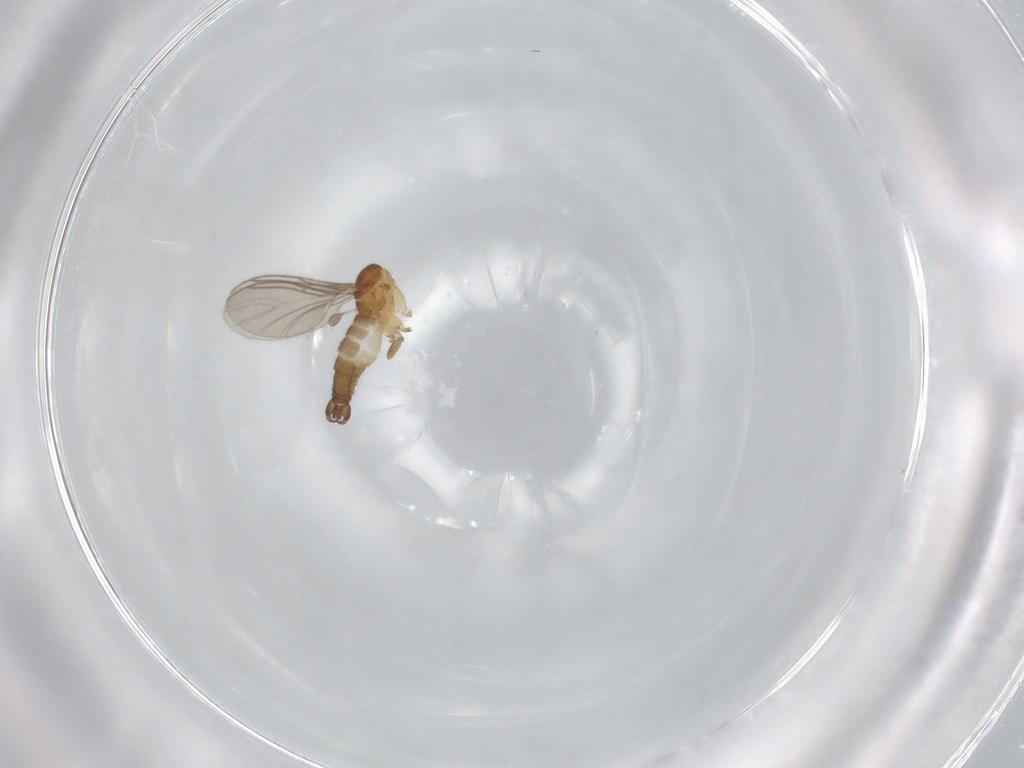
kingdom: Animalia
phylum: Arthropoda
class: Insecta
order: Diptera
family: Sciaridae
